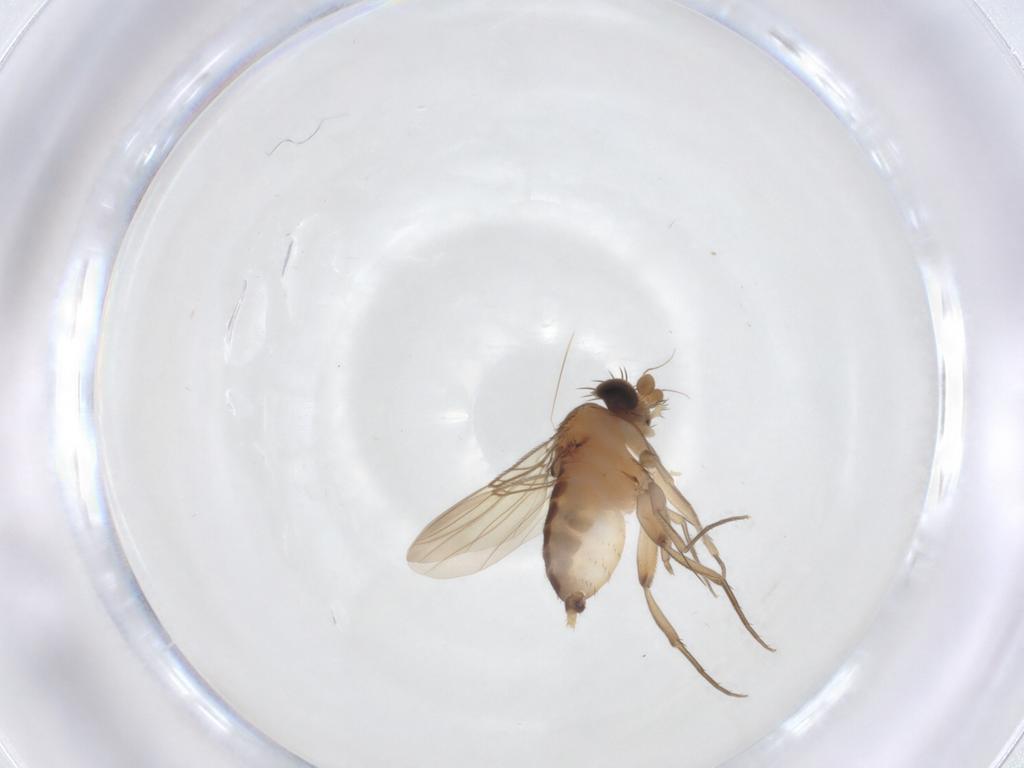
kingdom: Animalia
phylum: Arthropoda
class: Insecta
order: Diptera
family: Phoridae
